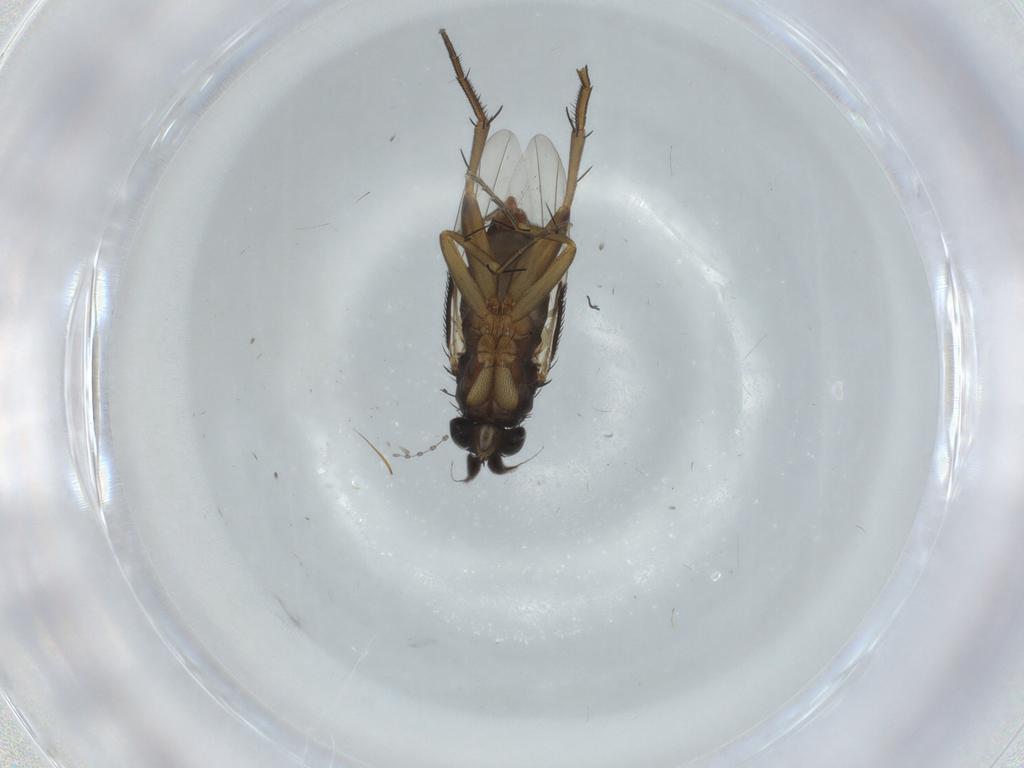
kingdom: Animalia
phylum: Arthropoda
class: Insecta
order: Diptera
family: Phoridae
